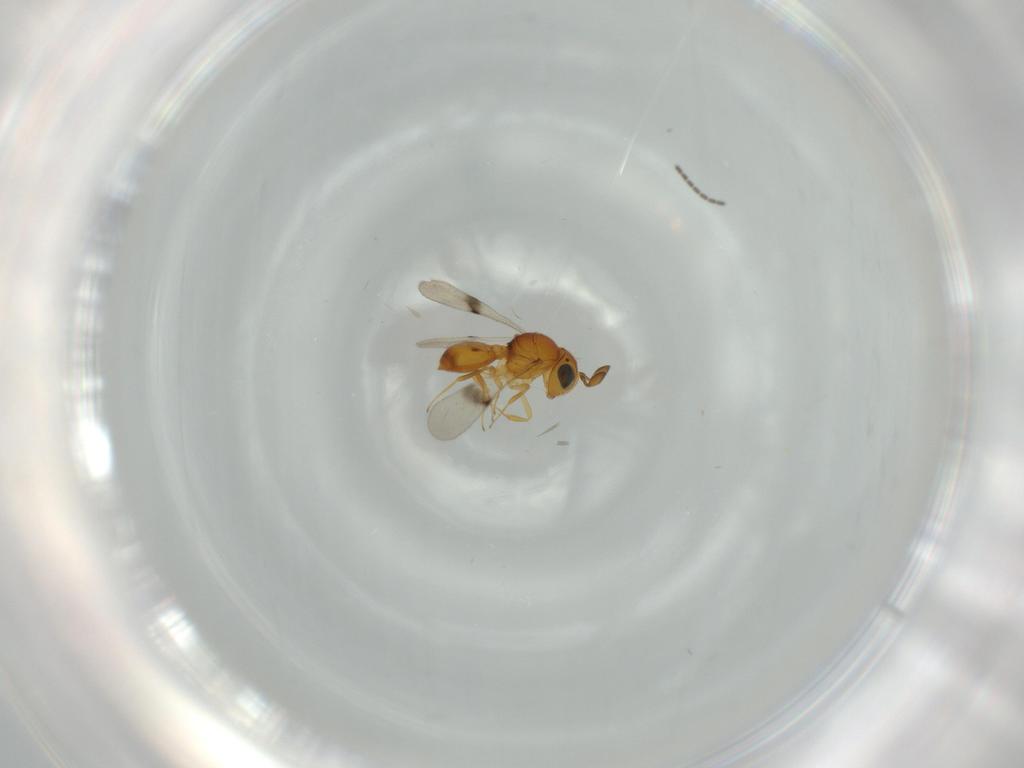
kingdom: Animalia
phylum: Arthropoda
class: Insecta
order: Hymenoptera
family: Scelionidae
